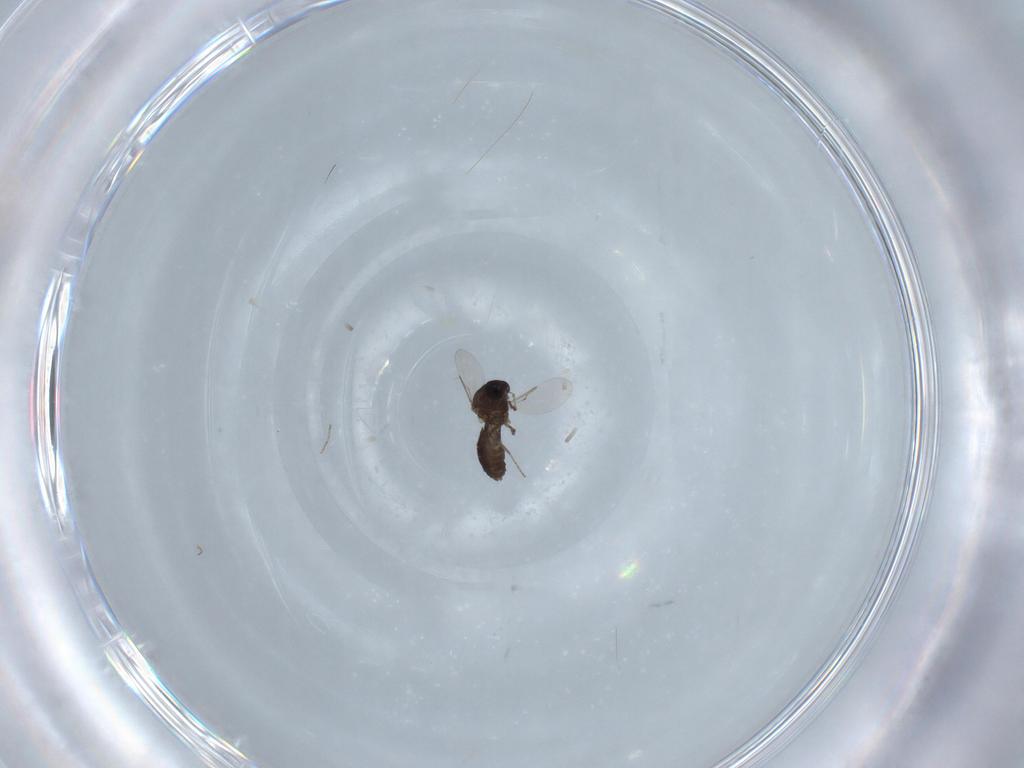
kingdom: Animalia
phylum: Arthropoda
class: Insecta
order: Diptera
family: Ceratopogonidae
